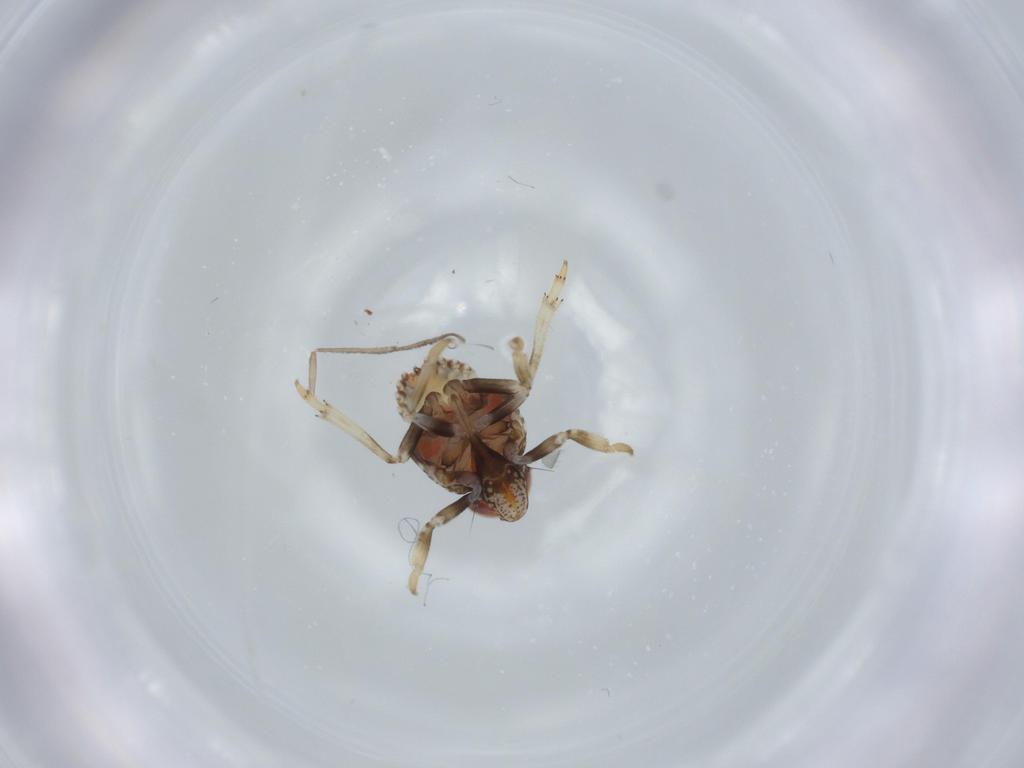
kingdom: Animalia
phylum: Arthropoda
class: Insecta
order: Hemiptera
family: Issidae
